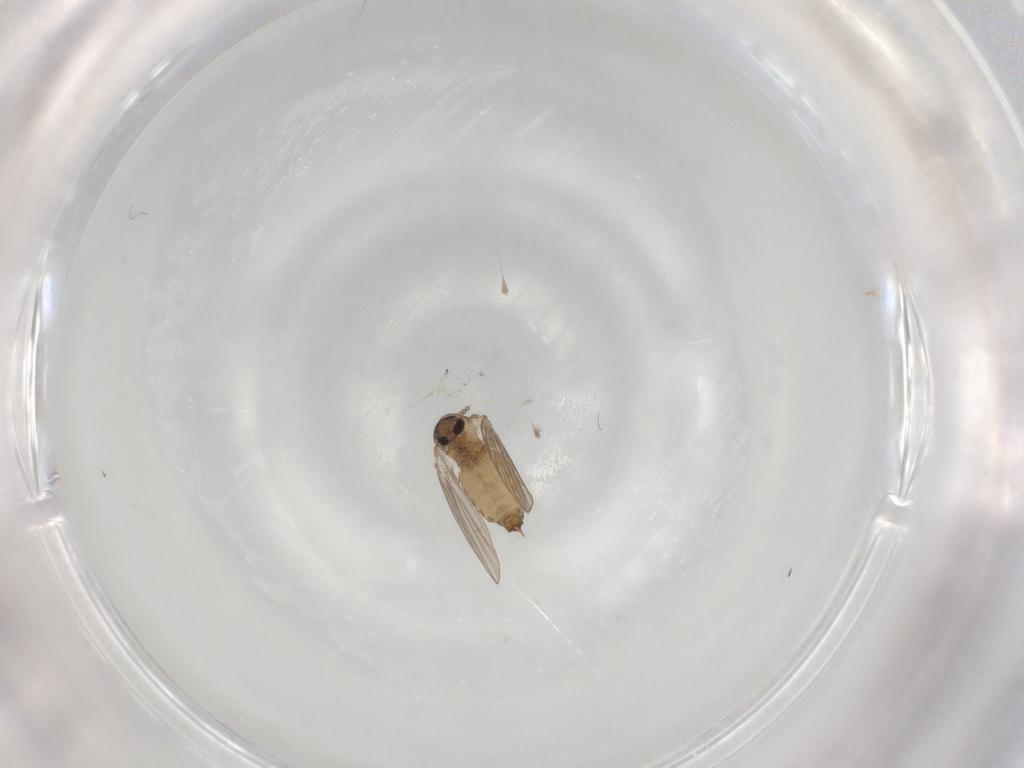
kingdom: Animalia
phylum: Arthropoda
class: Insecta
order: Diptera
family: Psychodidae
